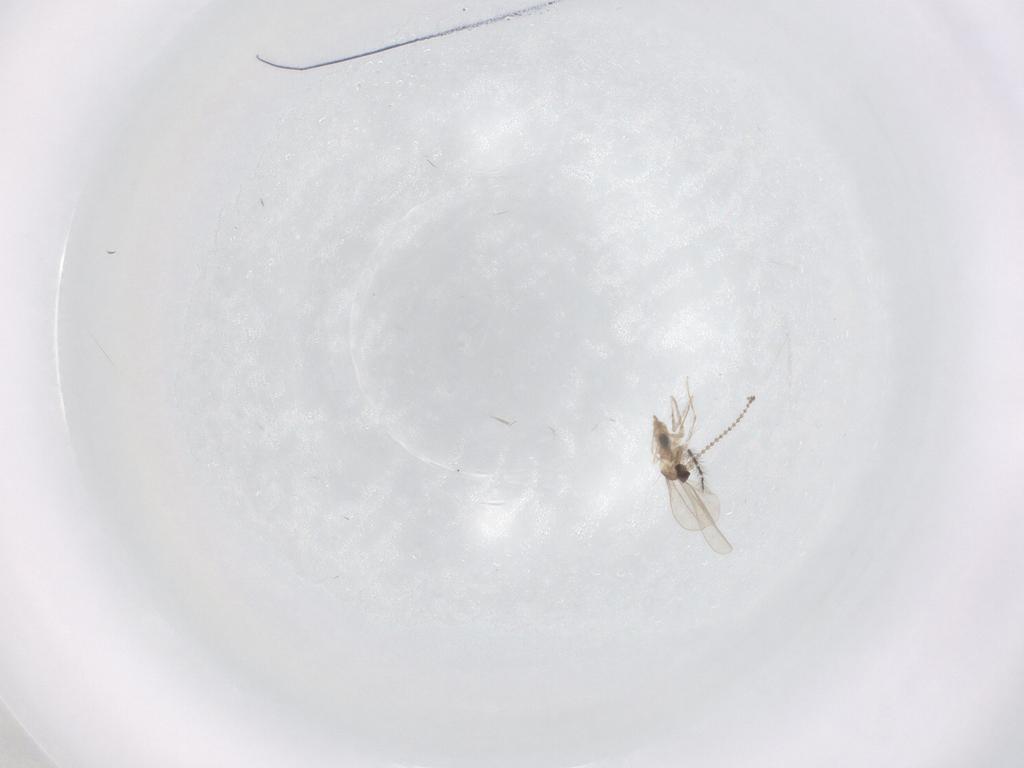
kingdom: Animalia
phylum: Arthropoda
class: Insecta
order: Diptera
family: Sciaridae
